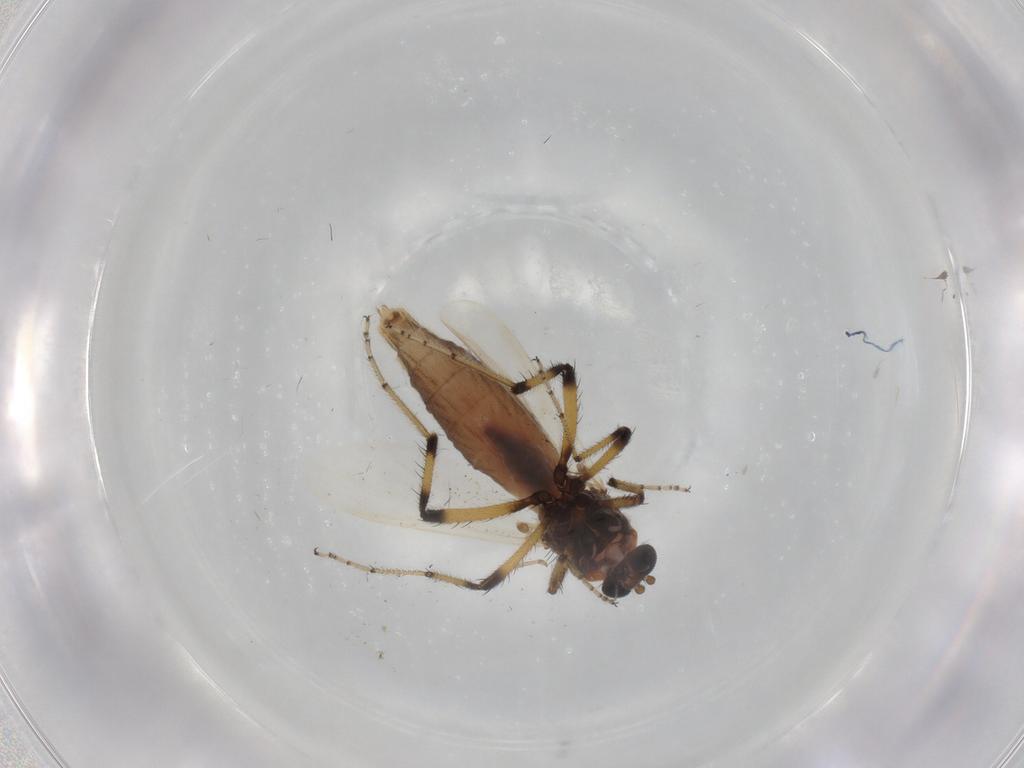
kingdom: Animalia
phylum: Arthropoda
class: Insecta
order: Diptera
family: Ceratopogonidae
